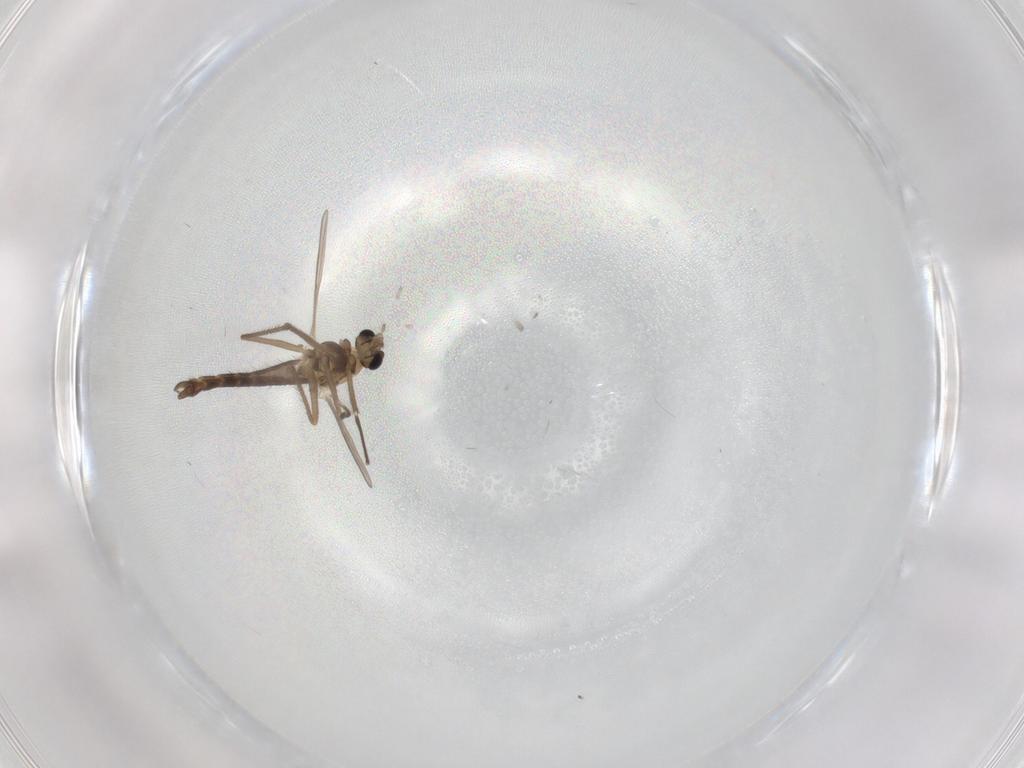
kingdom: Animalia
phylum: Arthropoda
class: Insecta
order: Diptera
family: Chironomidae
